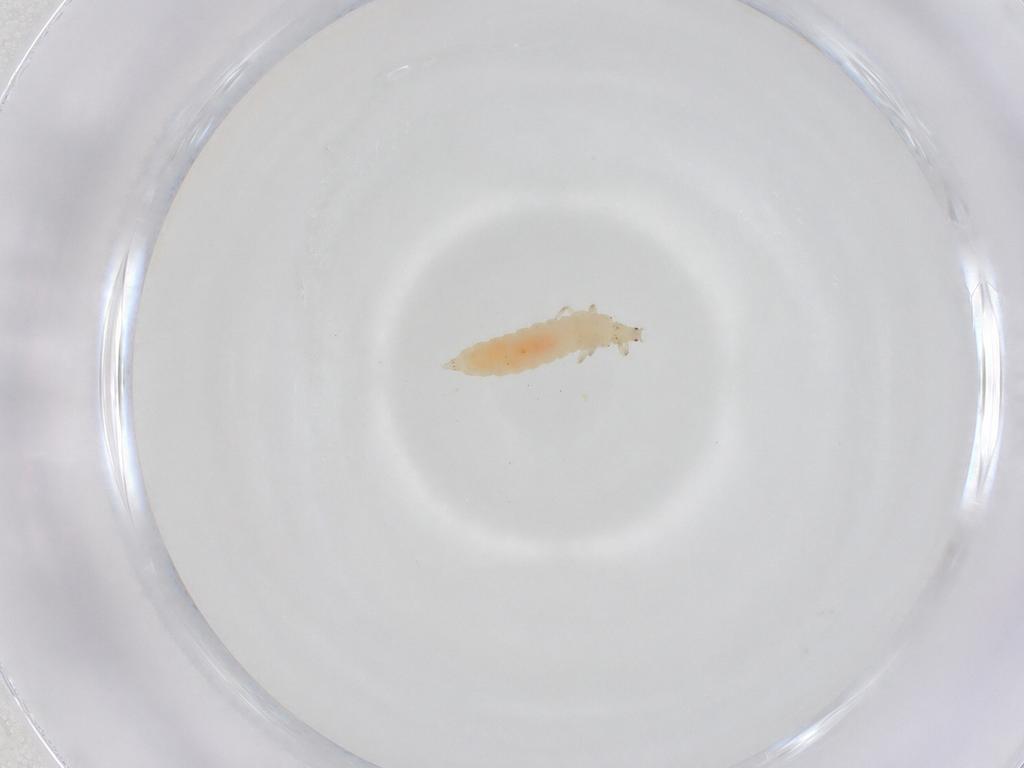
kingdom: Animalia
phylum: Arthropoda
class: Insecta
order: Thysanoptera
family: Aeolothripidae
